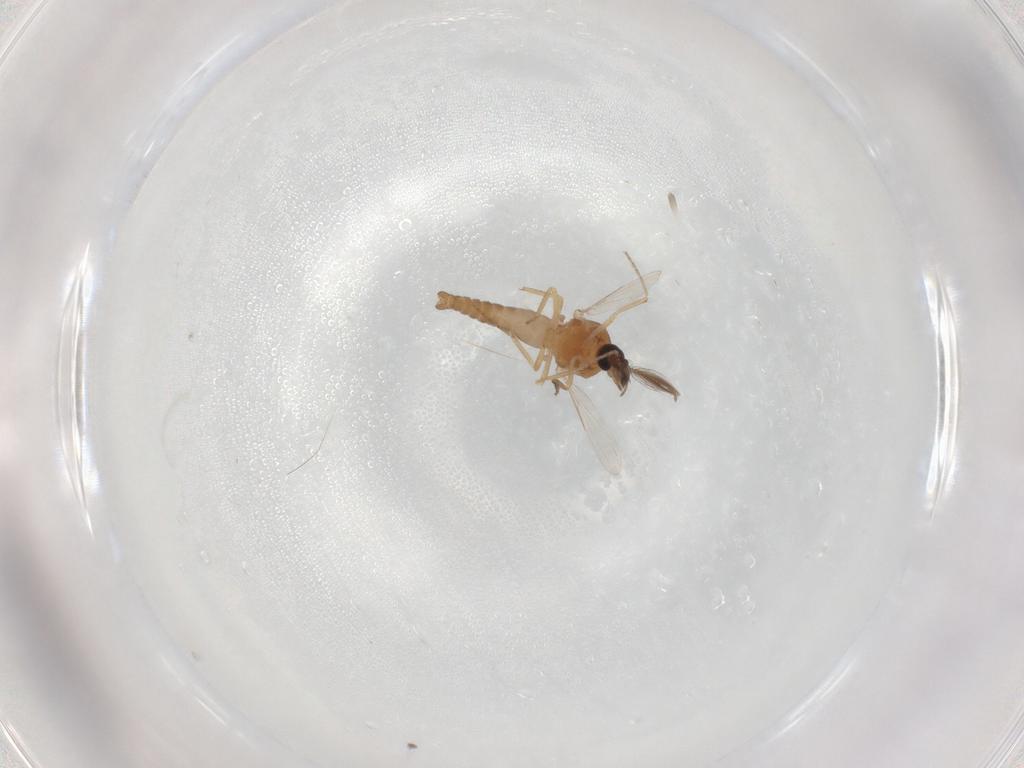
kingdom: Animalia
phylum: Arthropoda
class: Insecta
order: Diptera
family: Ceratopogonidae
